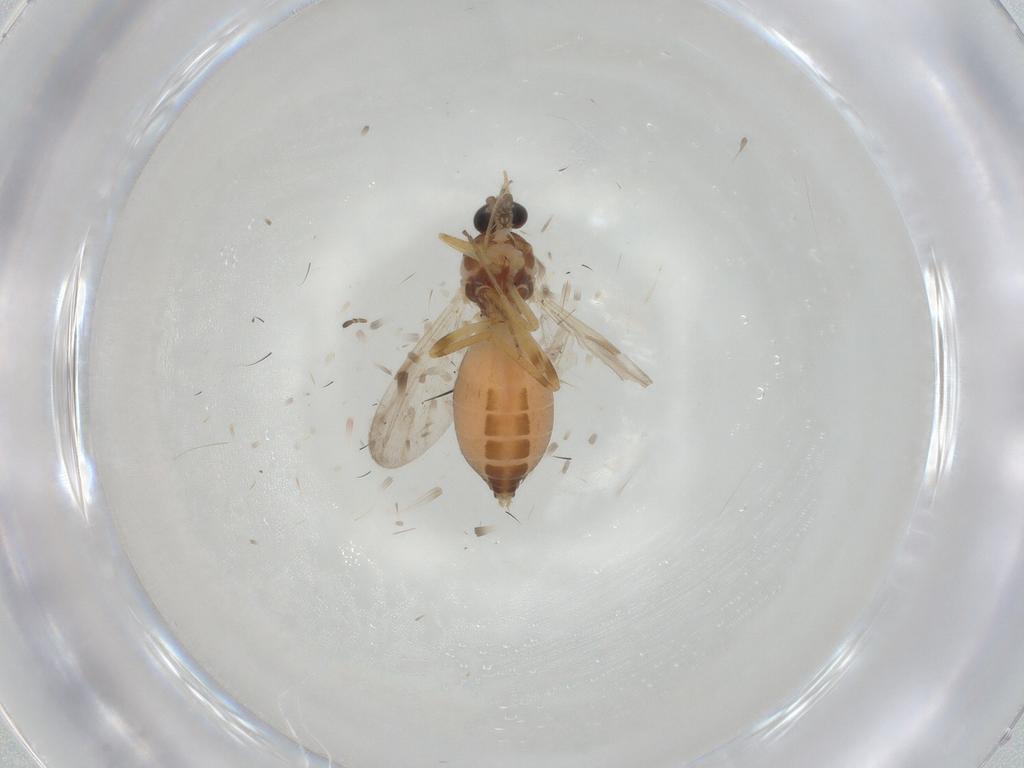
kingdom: Animalia
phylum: Arthropoda
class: Insecta
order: Diptera
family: Ceratopogonidae
